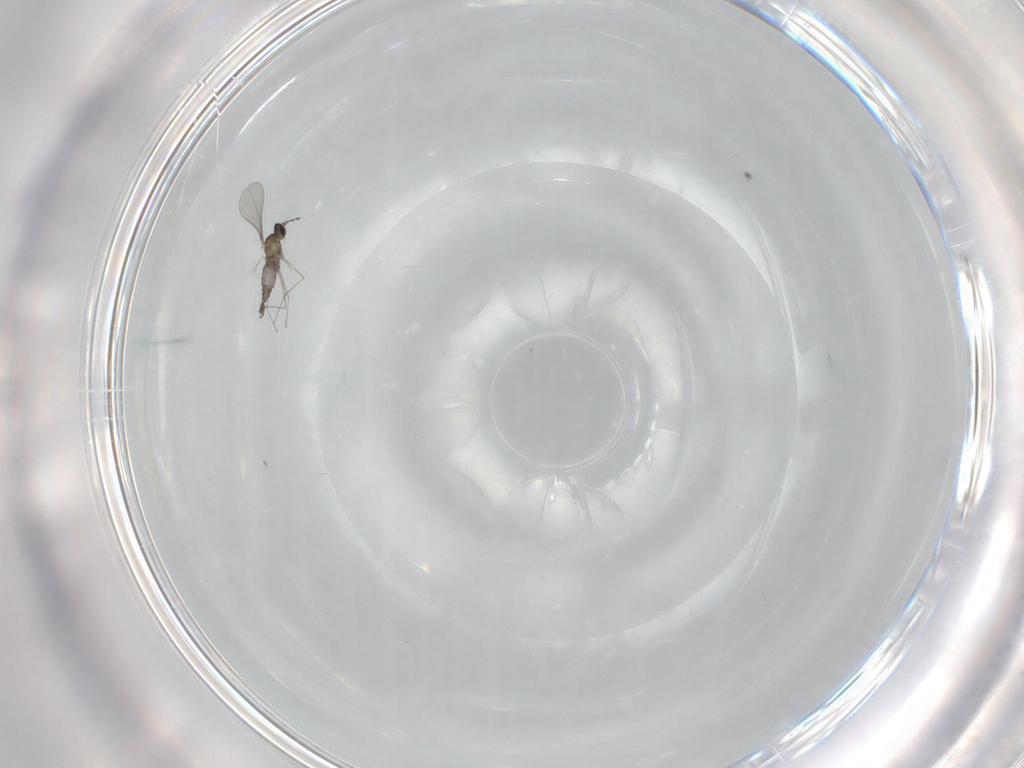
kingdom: Animalia
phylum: Arthropoda
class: Insecta
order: Diptera
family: Cecidomyiidae
